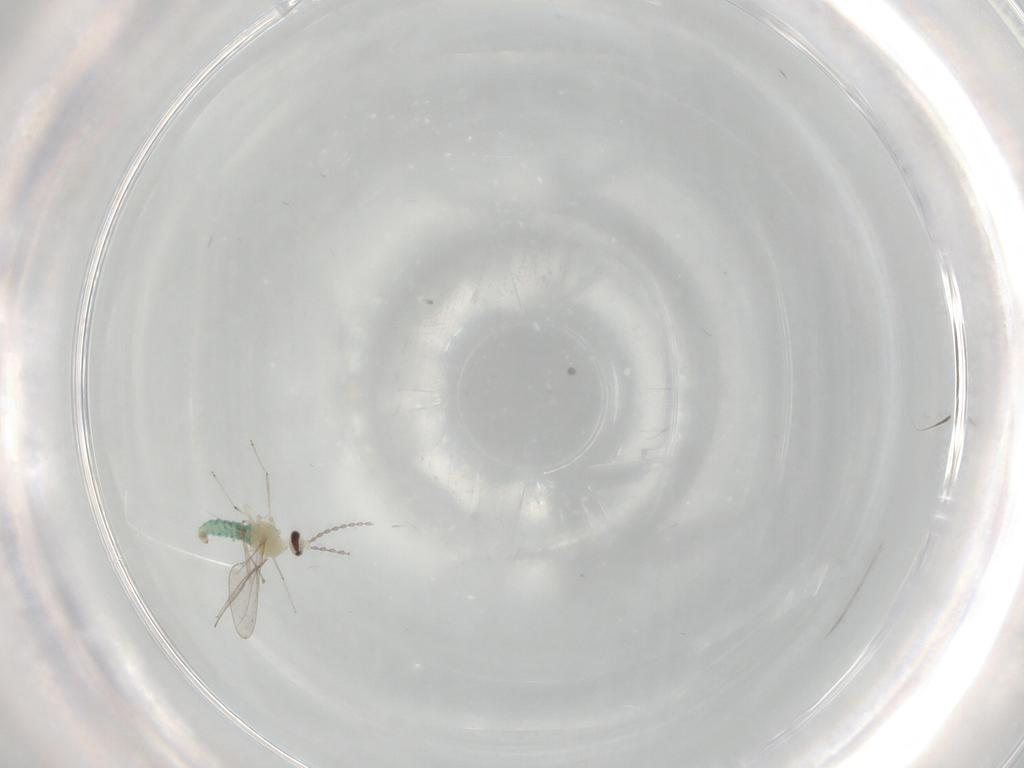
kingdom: Animalia
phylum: Arthropoda
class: Insecta
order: Diptera
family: Cecidomyiidae
